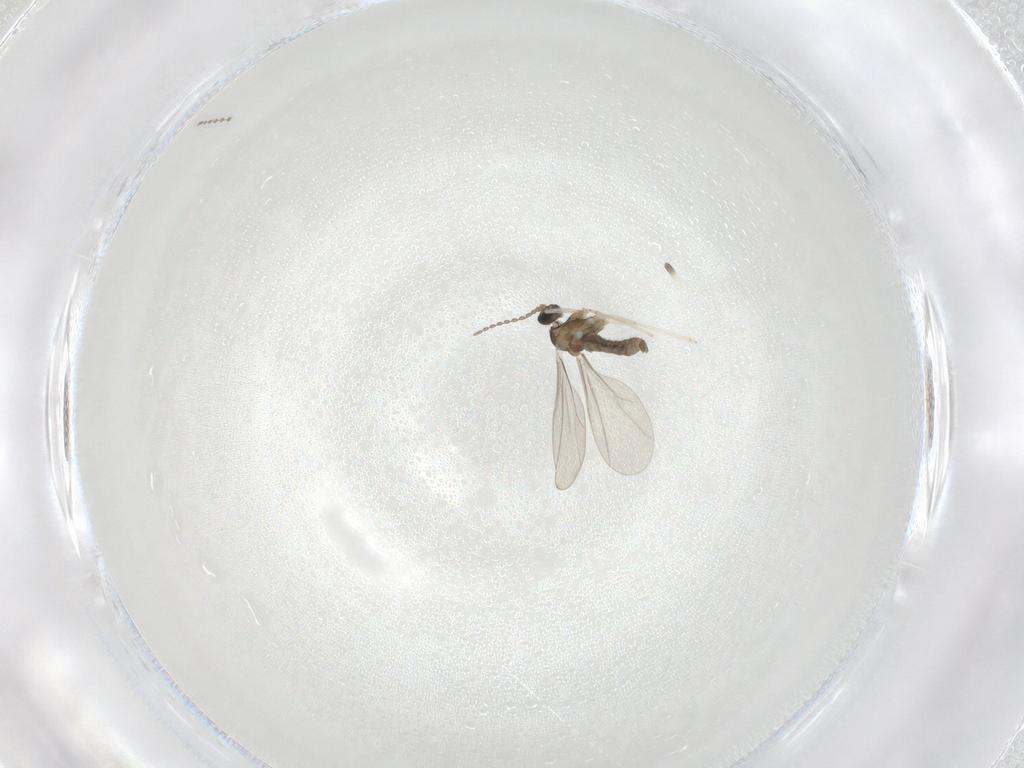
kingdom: Animalia
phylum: Arthropoda
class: Insecta
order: Diptera
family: Cecidomyiidae
